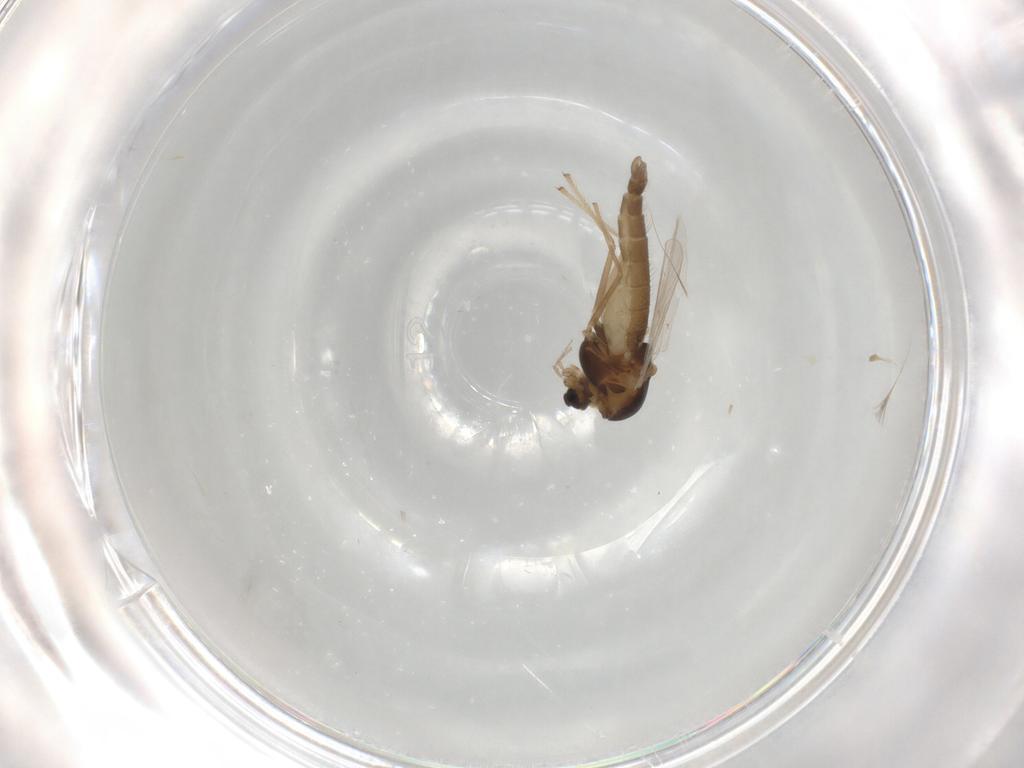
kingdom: Animalia
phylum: Arthropoda
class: Insecta
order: Diptera
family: Chironomidae
